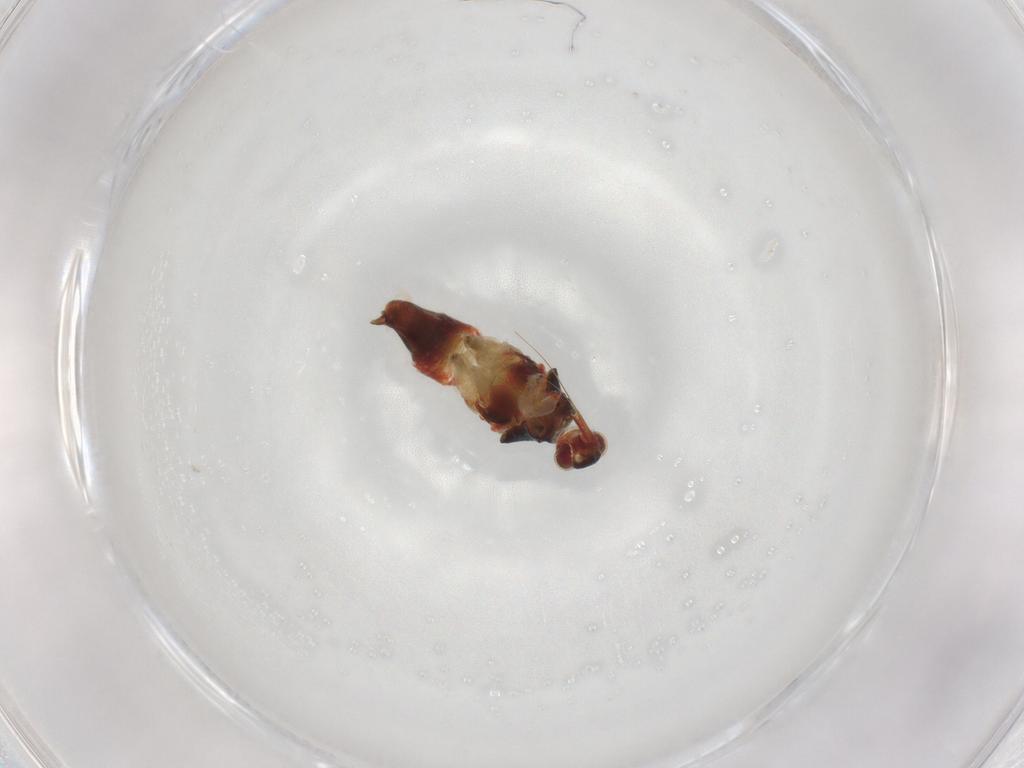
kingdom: Animalia
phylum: Arthropoda
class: Insecta
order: Hemiptera
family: Miridae
